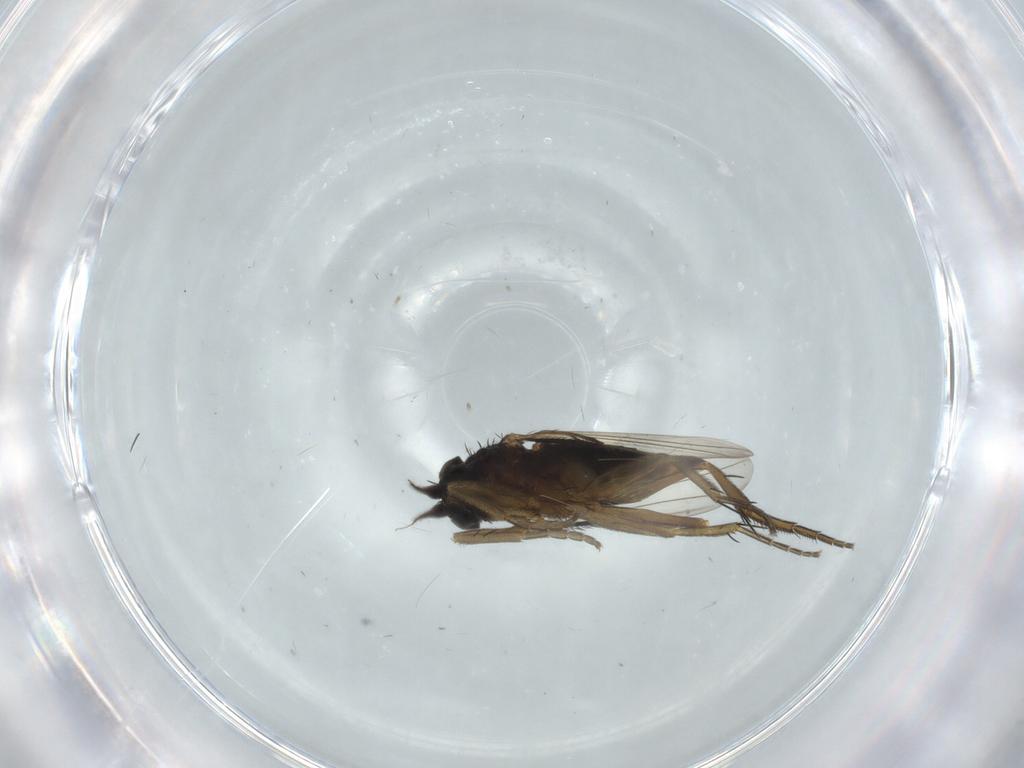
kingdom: Animalia
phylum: Arthropoda
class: Insecta
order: Diptera
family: Phoridae
